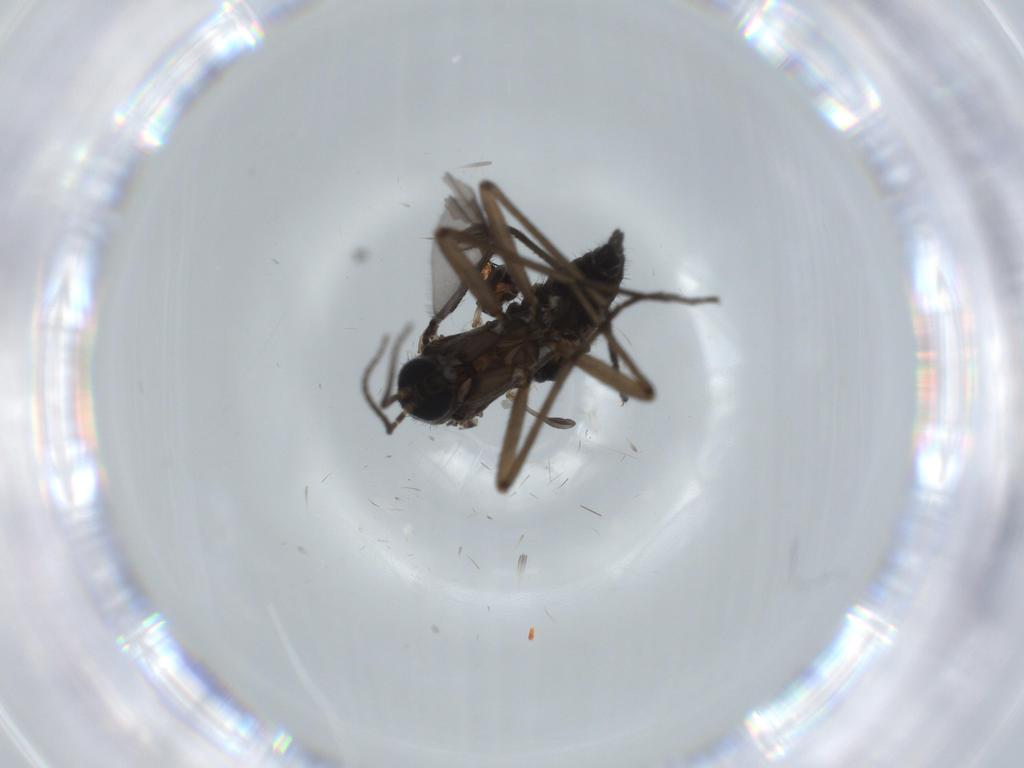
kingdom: Animalia
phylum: Arthropoda
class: Insecta
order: Diptera
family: Sciaridae
